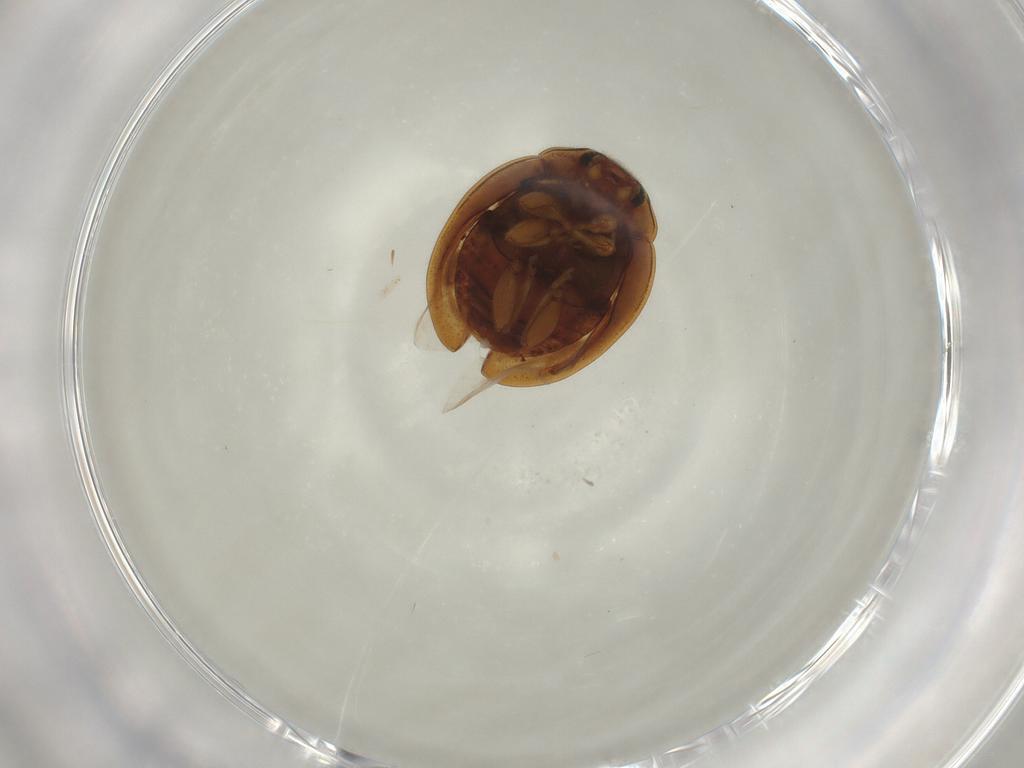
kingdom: Animalia
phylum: Arthropoda
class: Insecta
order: Coleoptera
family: Coccinellidae
